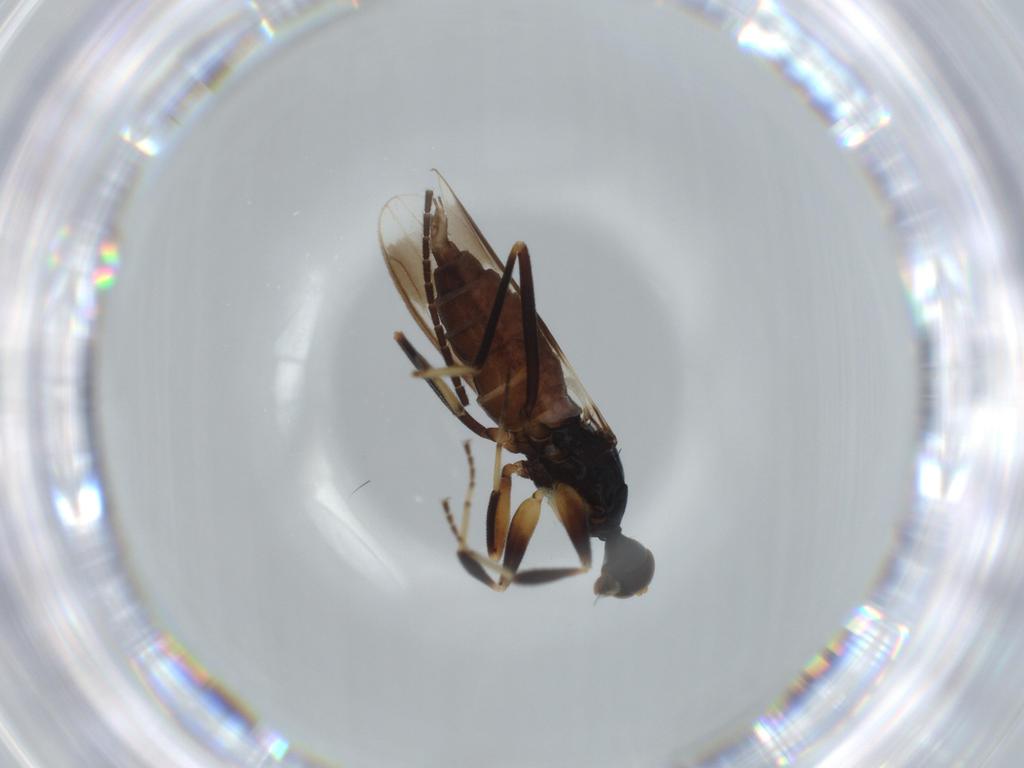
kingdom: Animalia
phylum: Arthropoda
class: Insecta
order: Diptera
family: Hybotidae
